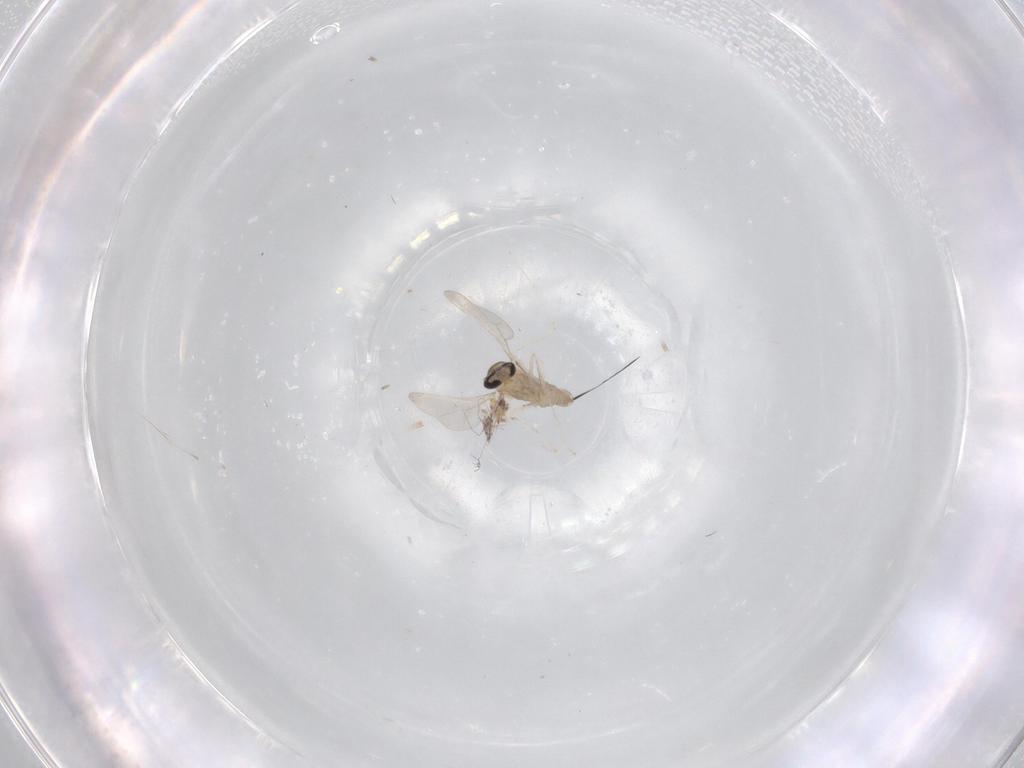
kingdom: Animalia
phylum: Arthropoda
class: Insecta
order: Diptera
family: Cecidomyiidae
